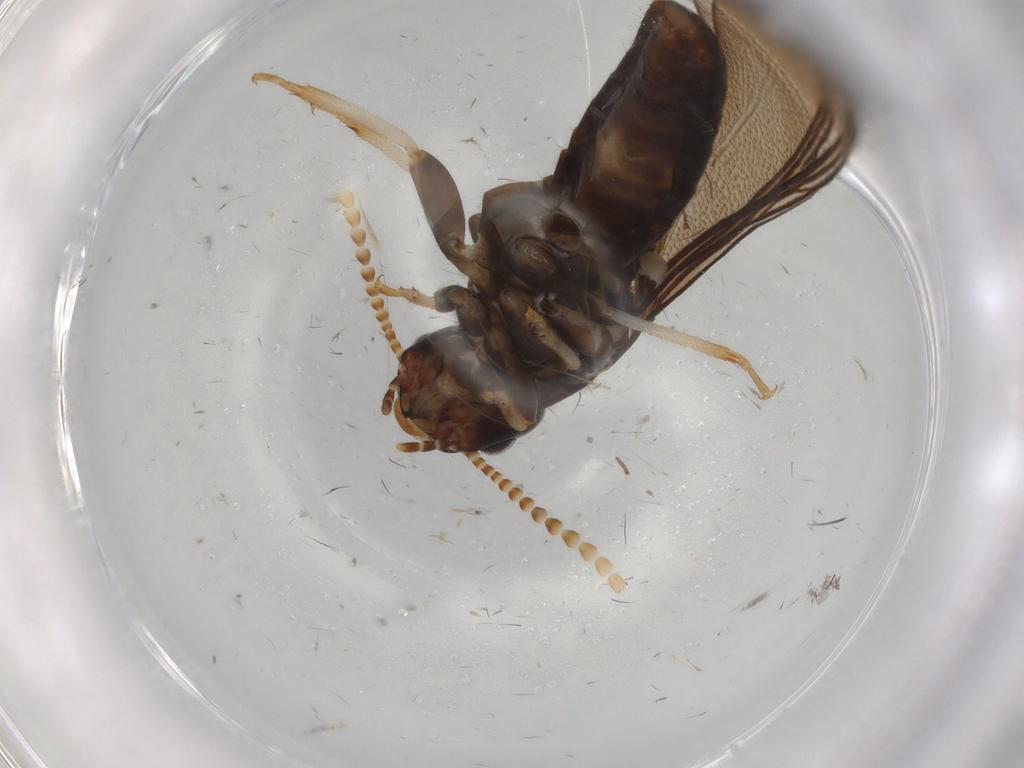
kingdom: Animalia
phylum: Arthropoda
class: Insecta
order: Blattodea
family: Kalotermitidae
